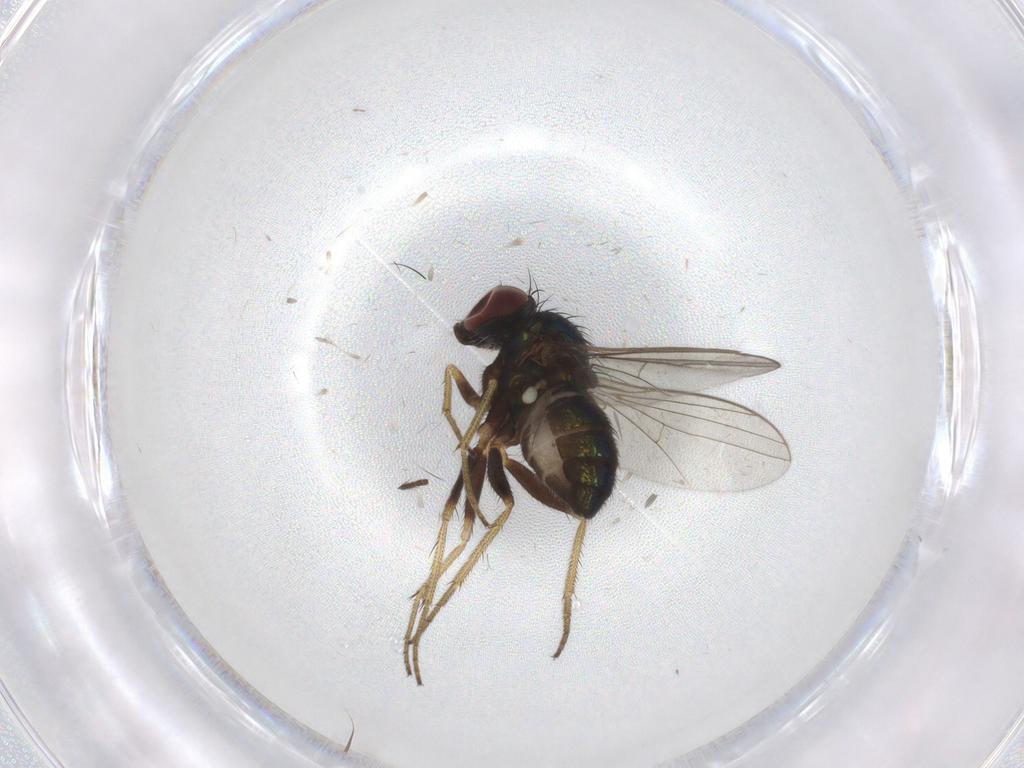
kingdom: Animalia
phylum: Arthropoda
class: Insecta
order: Diptera
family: Dolichopodidae
